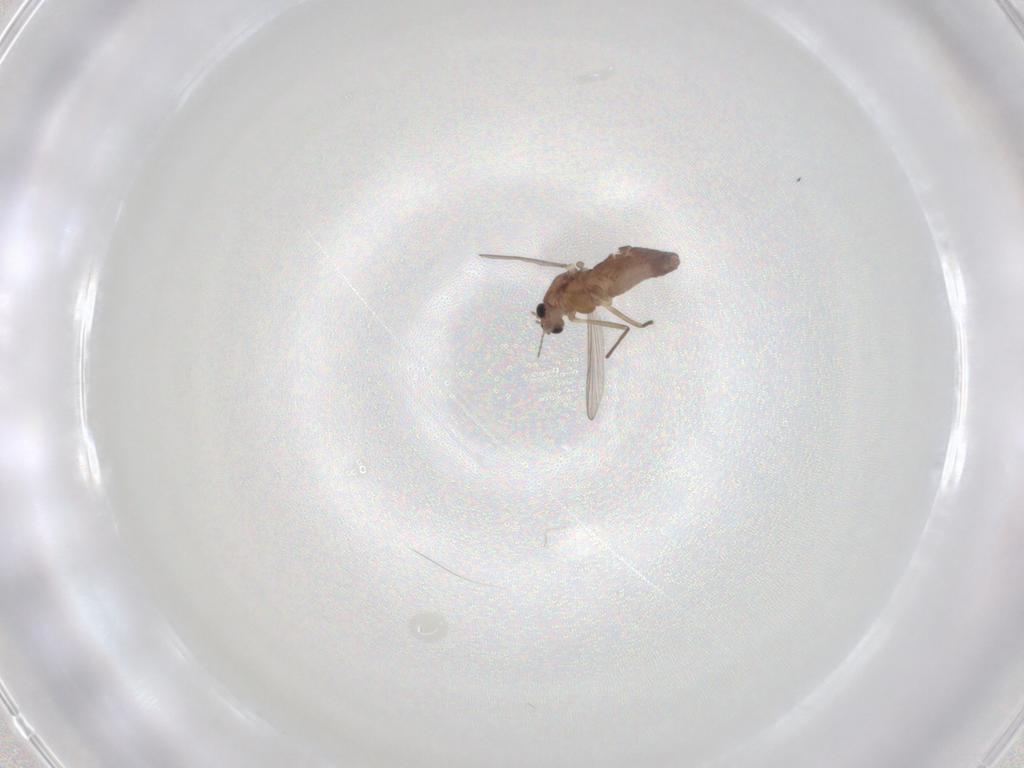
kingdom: Animalia
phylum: Arthropoda
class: Insecta
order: Diptera
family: Chironomidae
